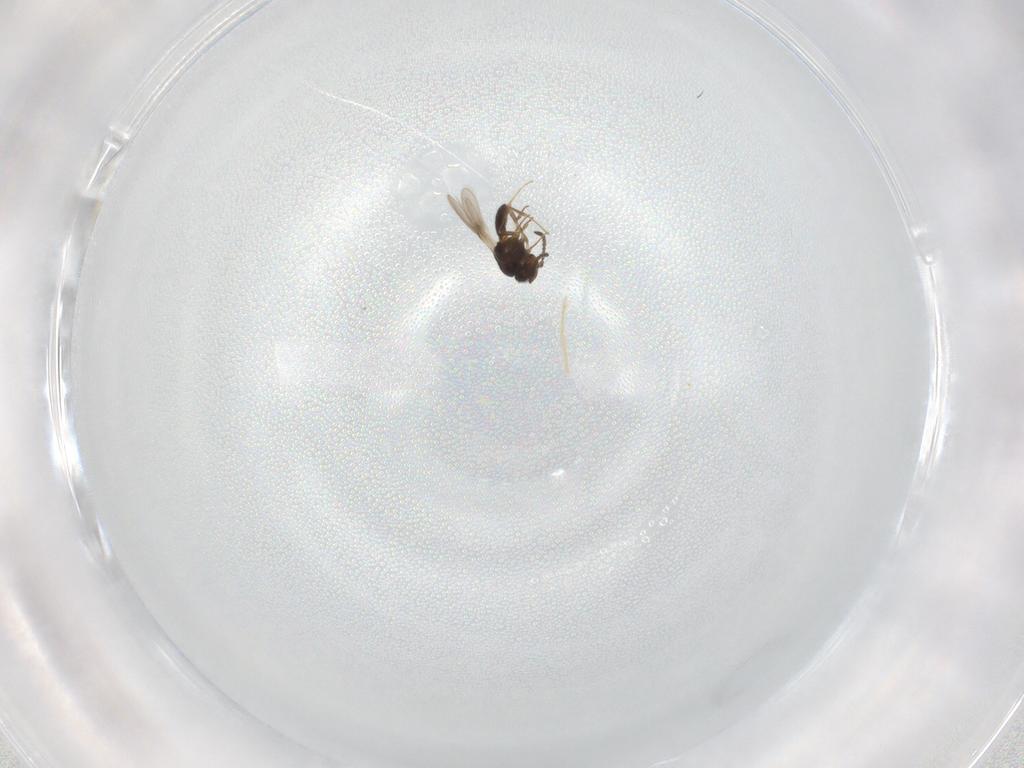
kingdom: Animalia
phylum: Arthropoda
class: Insecta
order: Hymenoptera
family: Scelionidae
